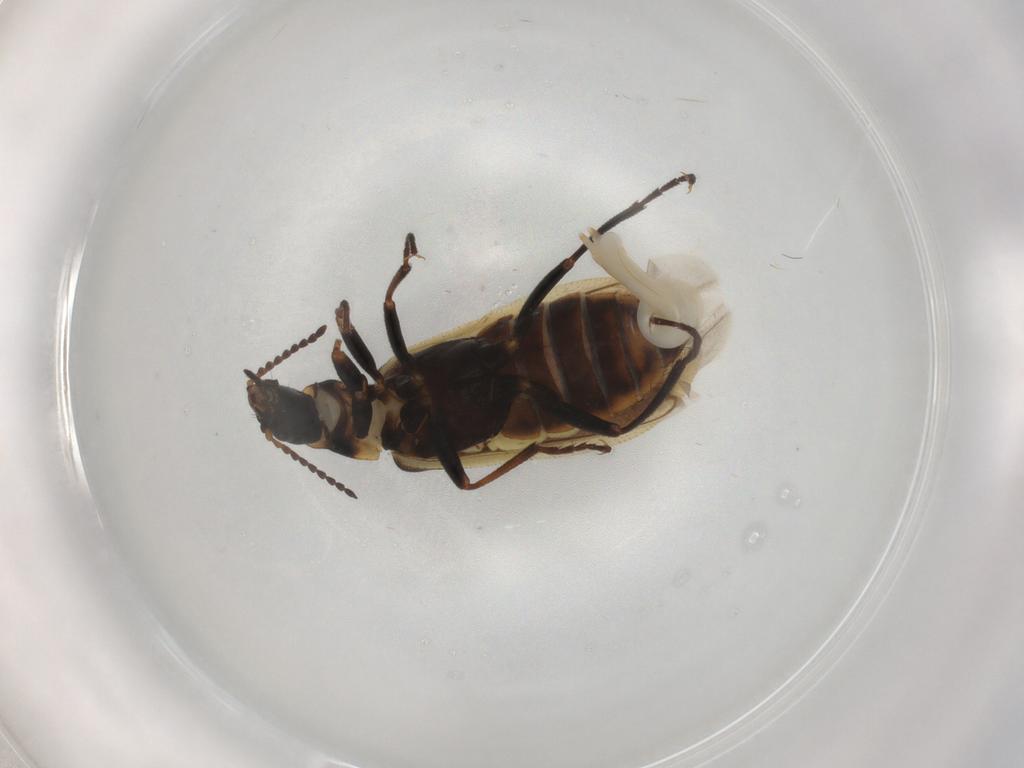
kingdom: Animalia
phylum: Arthropoda
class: Insecta
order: Coleoptera
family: Melyridae
